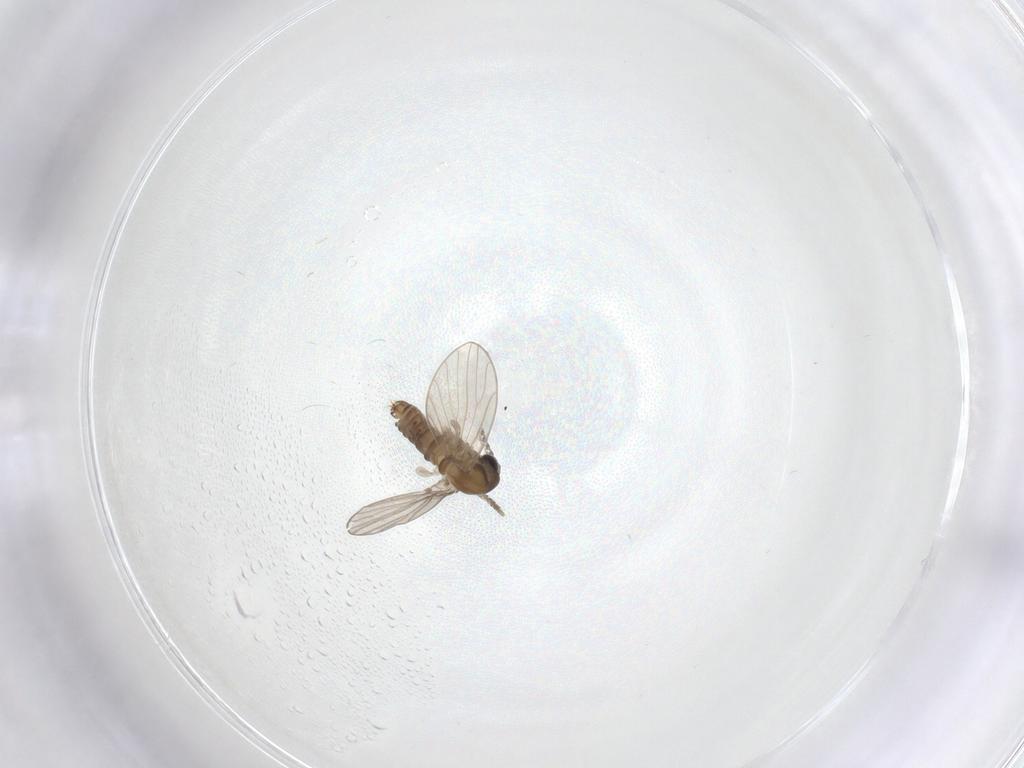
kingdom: Animalia
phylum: Arthropoda
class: Insecta
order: Diptera
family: Psychodidae
